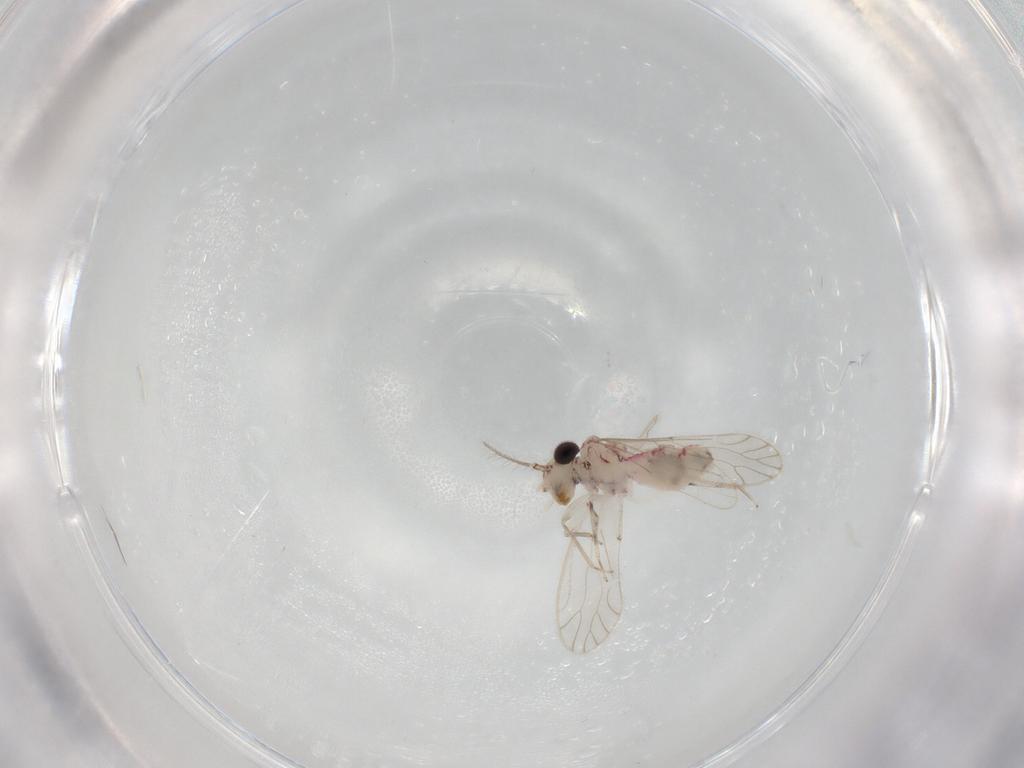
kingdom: Animalia
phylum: Arthropoda
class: Insecta
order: Psocodea
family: Caeciliusidae
